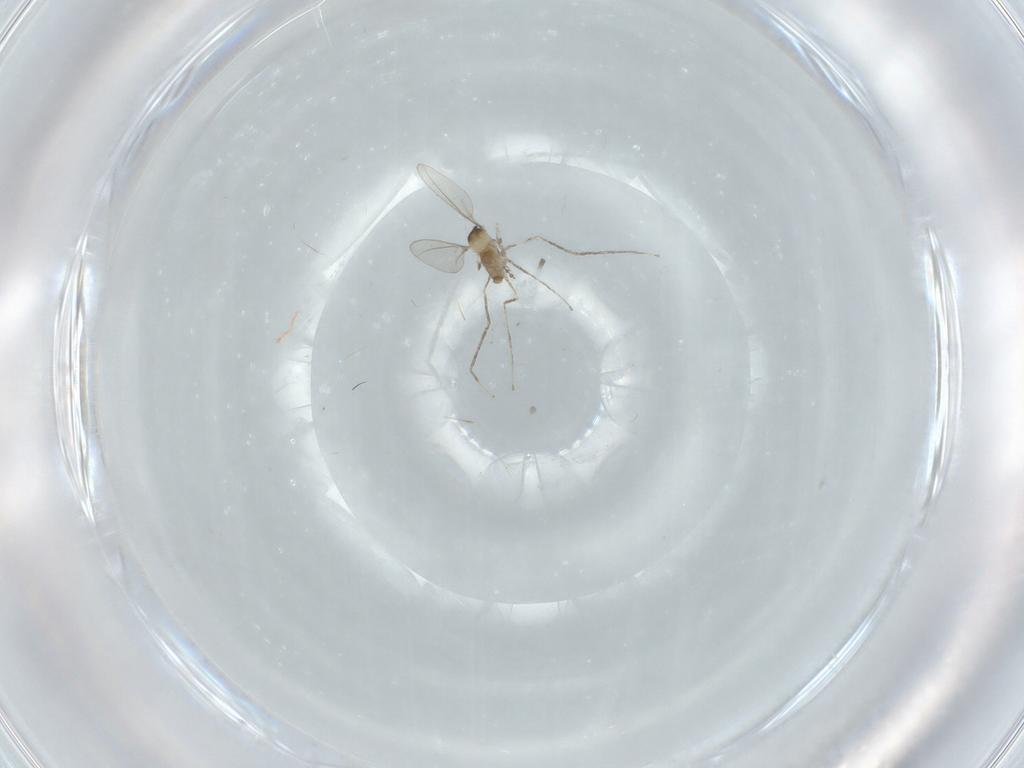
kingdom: Animalia
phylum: Arthropoda
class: Insecta
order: Diptera
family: Cecidomyiidae
